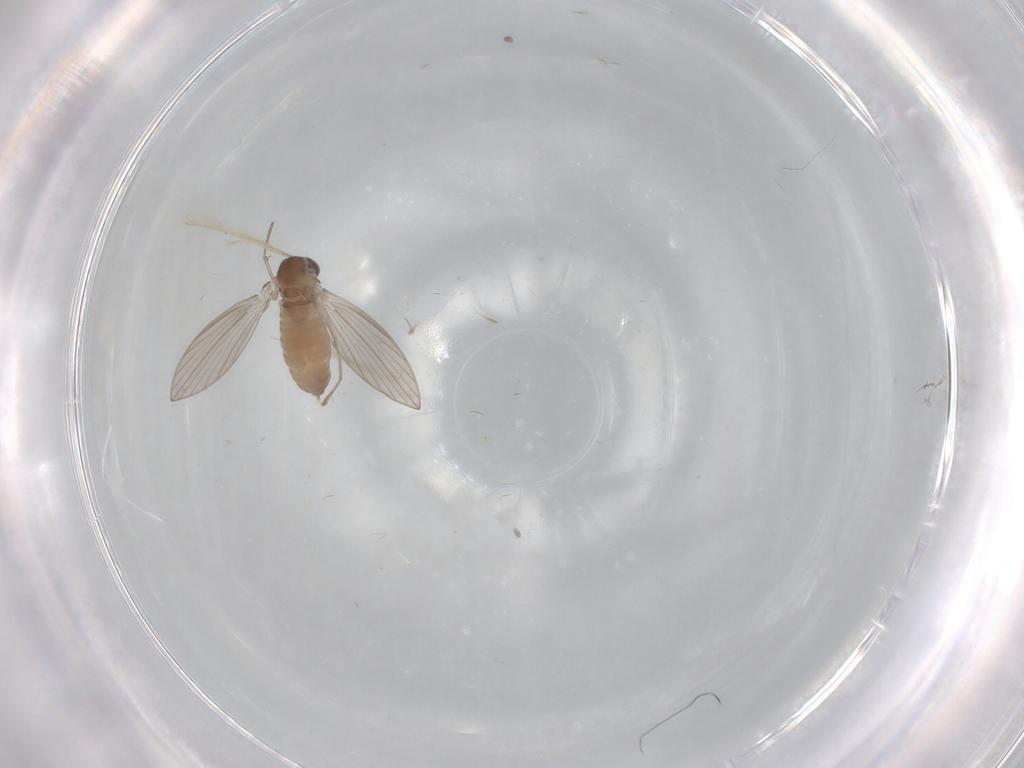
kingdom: Animalia
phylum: Arthropoda
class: Insecta
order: Diptera
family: Psychodidae
